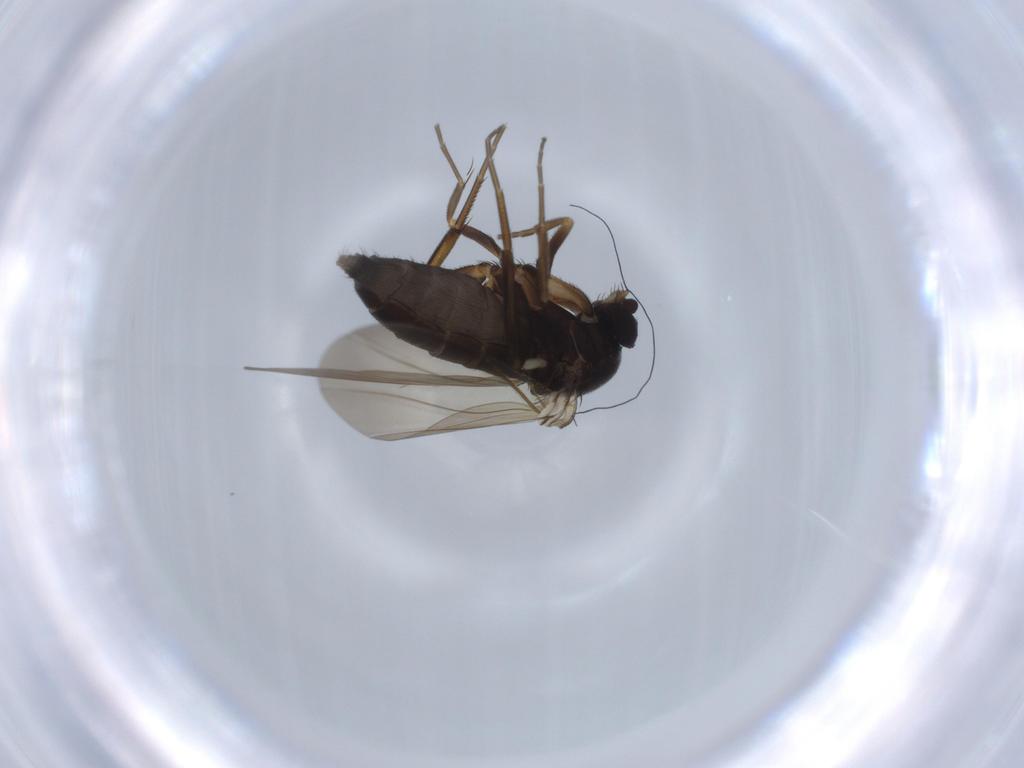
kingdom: Animalia
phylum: Arthropoda
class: Insecta
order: Diptera
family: Phoridae
